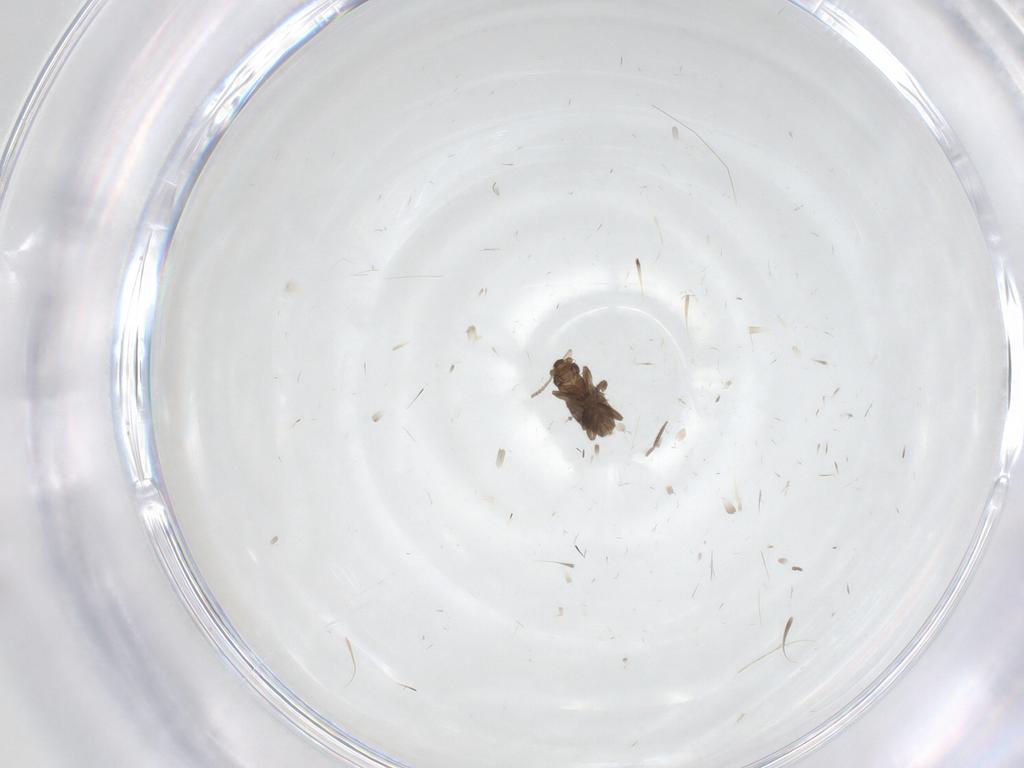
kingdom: Animalia
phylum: Arthropoda
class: Insecta
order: Diptera
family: Psychodidae
